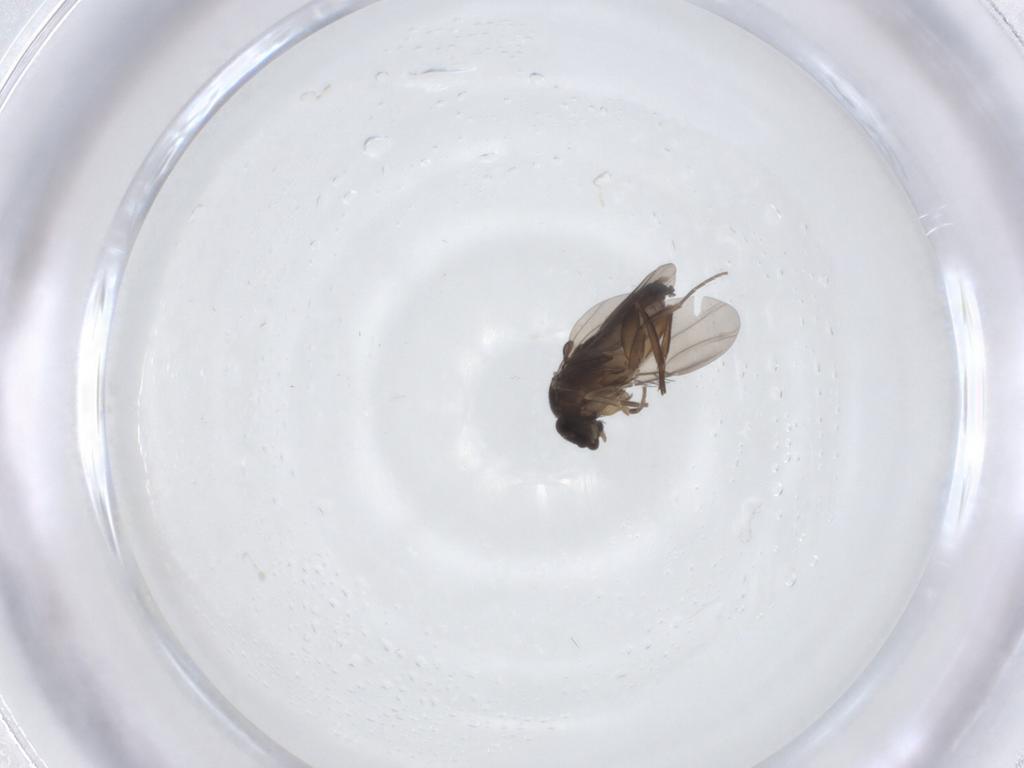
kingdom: Animalia
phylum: Arthropoda
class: Insecta
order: Diptera
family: Phoridae
